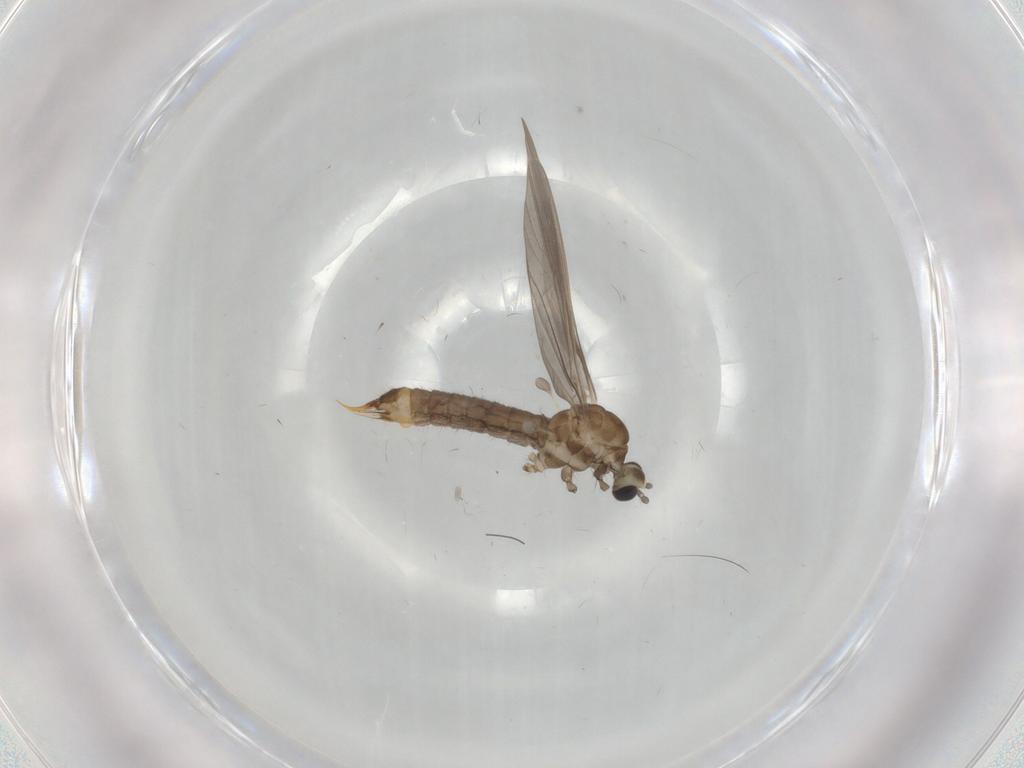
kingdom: Animalia
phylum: Arthropoda
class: Insecta
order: Diptera
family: Limoniidae
